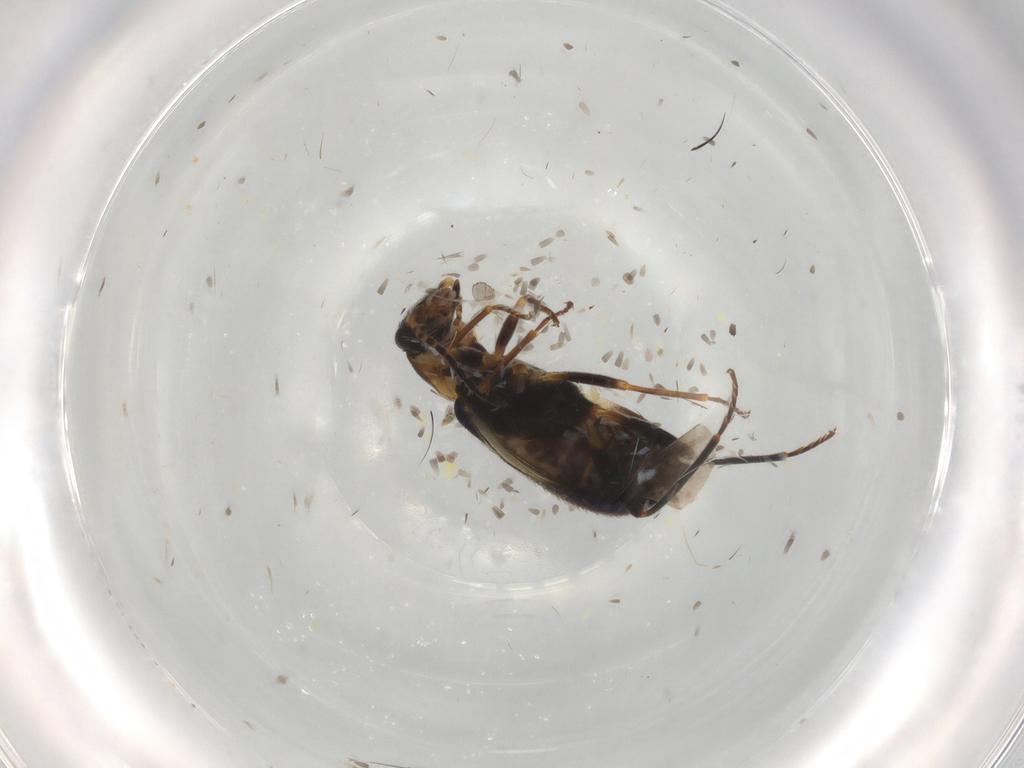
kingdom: Animalia
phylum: Arthropoda
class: Insecta
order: Coleoptera
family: Melyridae
